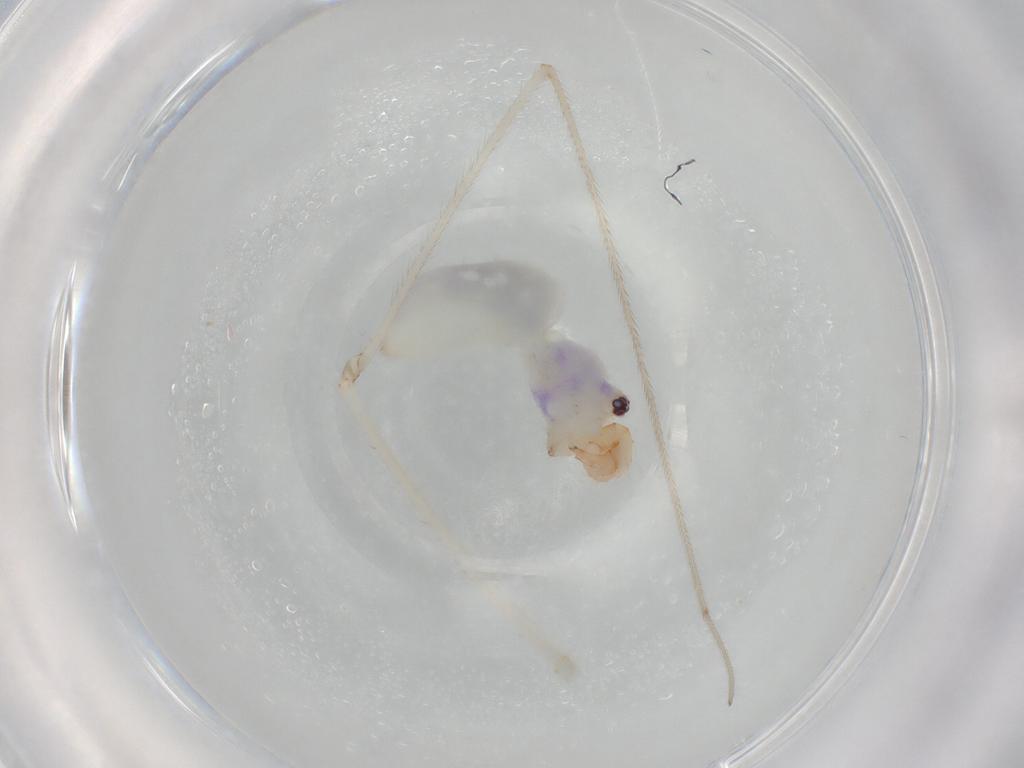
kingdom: Animalia
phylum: Arthropoda
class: Arachnida
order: Araneae
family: Pholcidae
